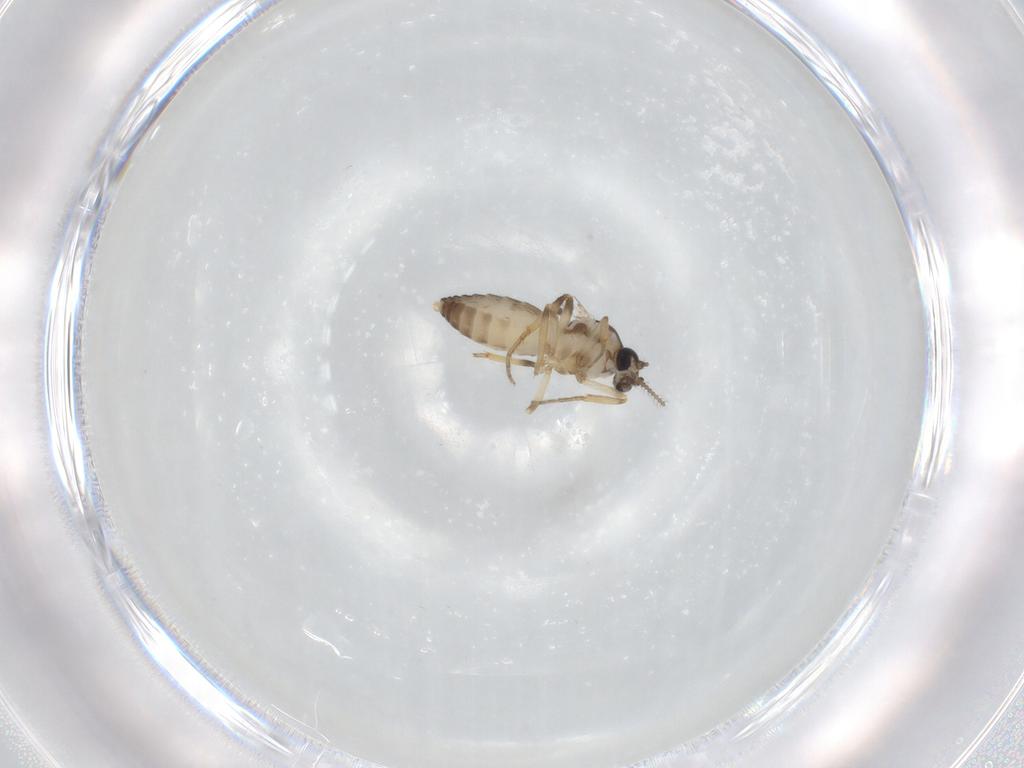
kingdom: Animalia
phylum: Arthropoda
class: Insecta
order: Diptera
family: Ceratopogonidae
